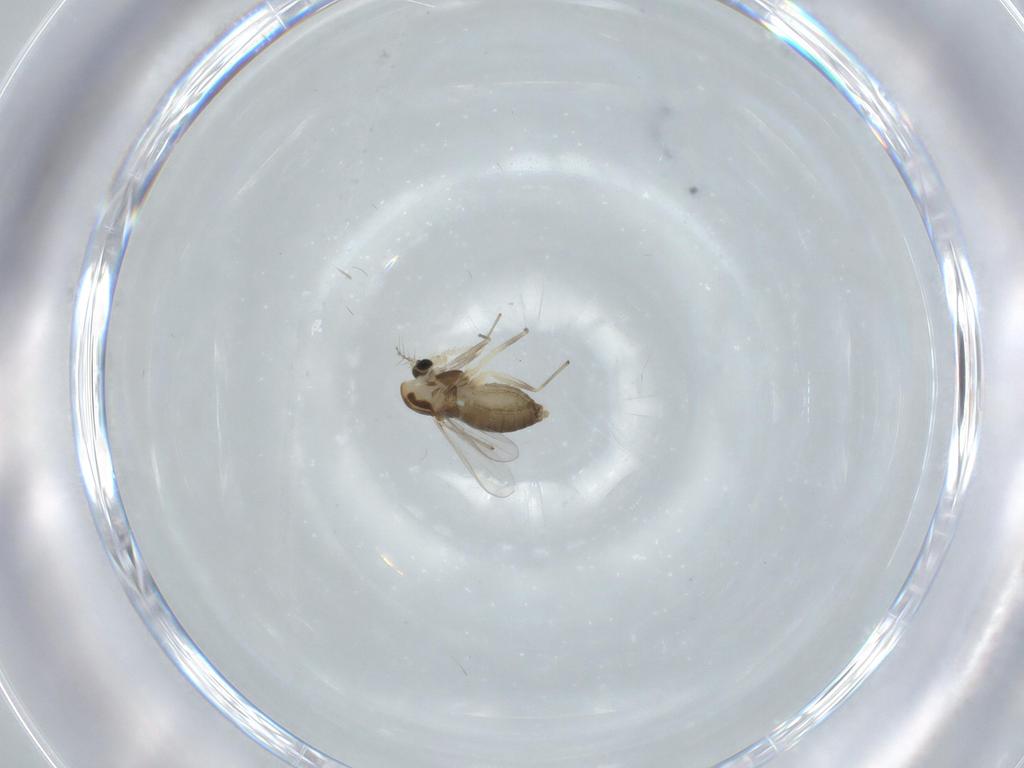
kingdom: Animalia
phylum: Arthropoda
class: Insecta
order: Diptera
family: Chironomidae
